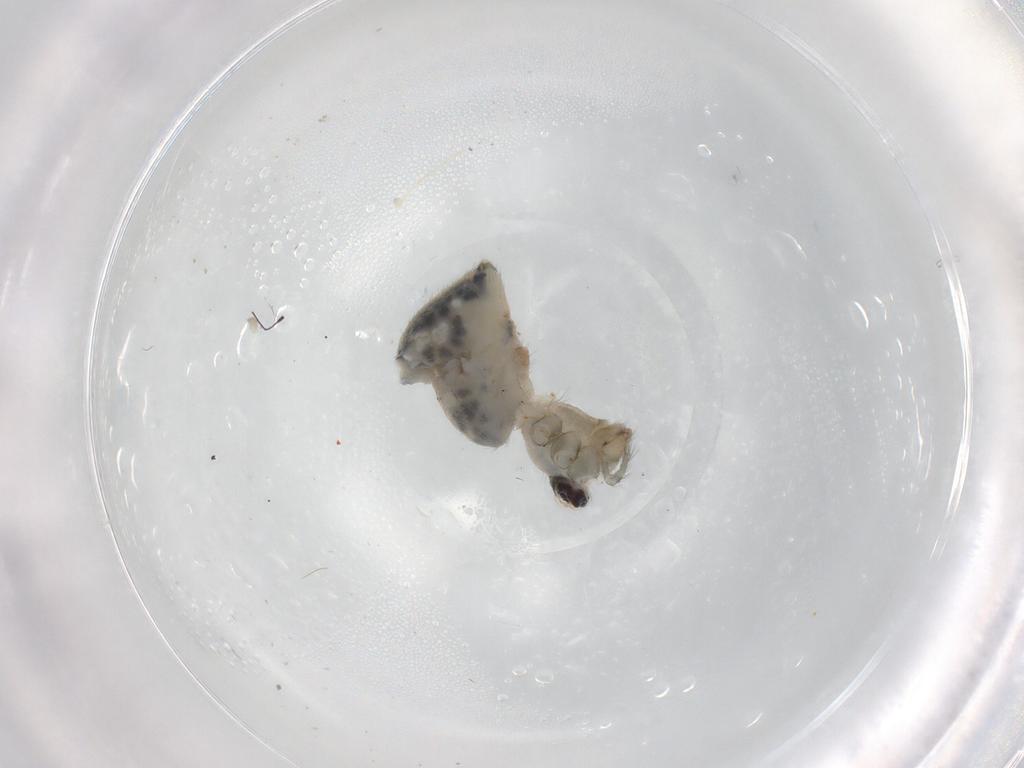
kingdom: Animalia
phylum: Arthropoda
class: Arachnida
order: Araneae
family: Pholcidae
